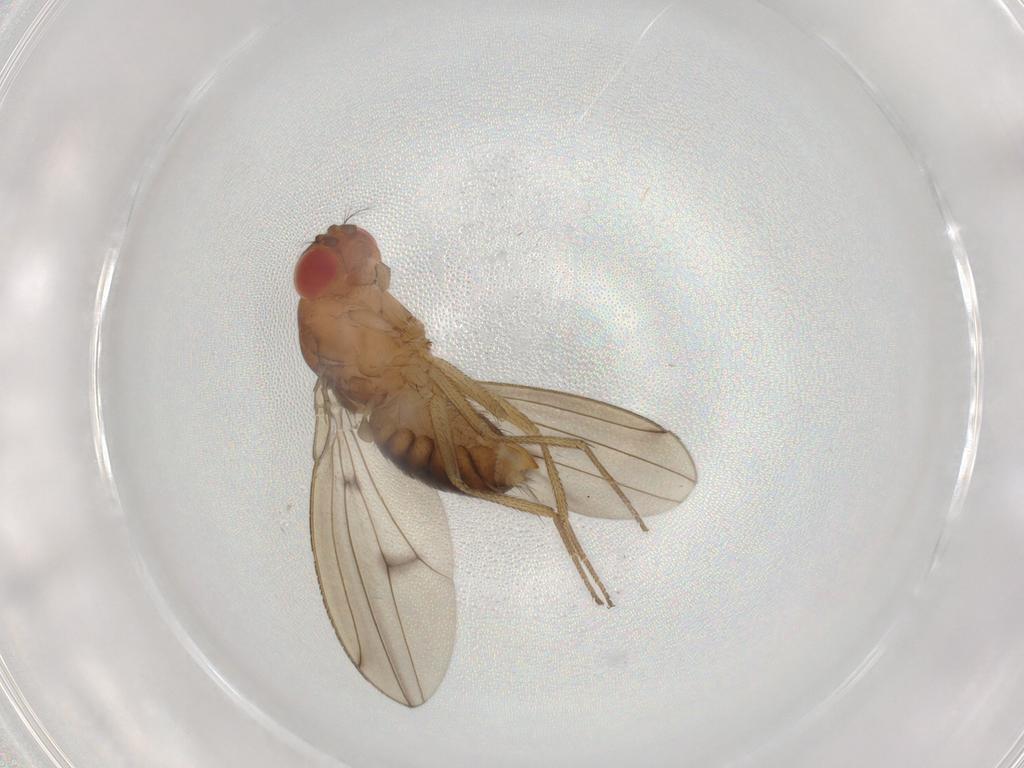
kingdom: Animalia
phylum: Arthropoda
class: Insecta
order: Diptera
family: Drosophilidae
